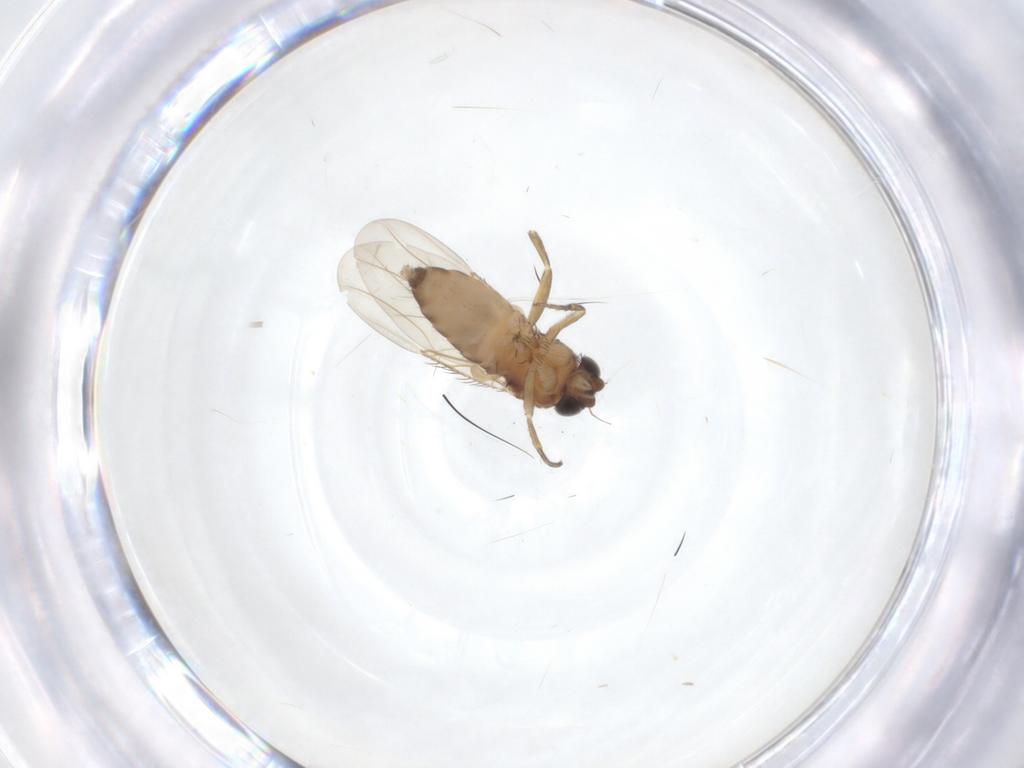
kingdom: Animalia
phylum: Arthropoda
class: Insecta
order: Diptera
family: Phoridae
